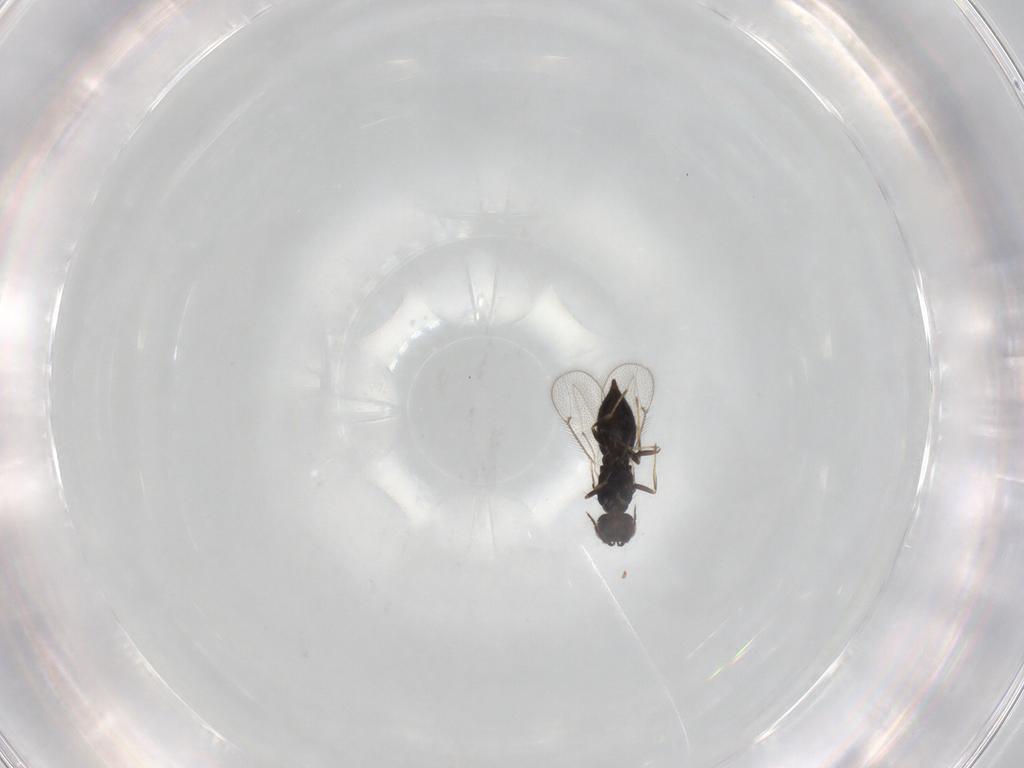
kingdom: Animalia
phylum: Arthropoda
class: Insecta
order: Hymenoptera
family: Eulophidae
